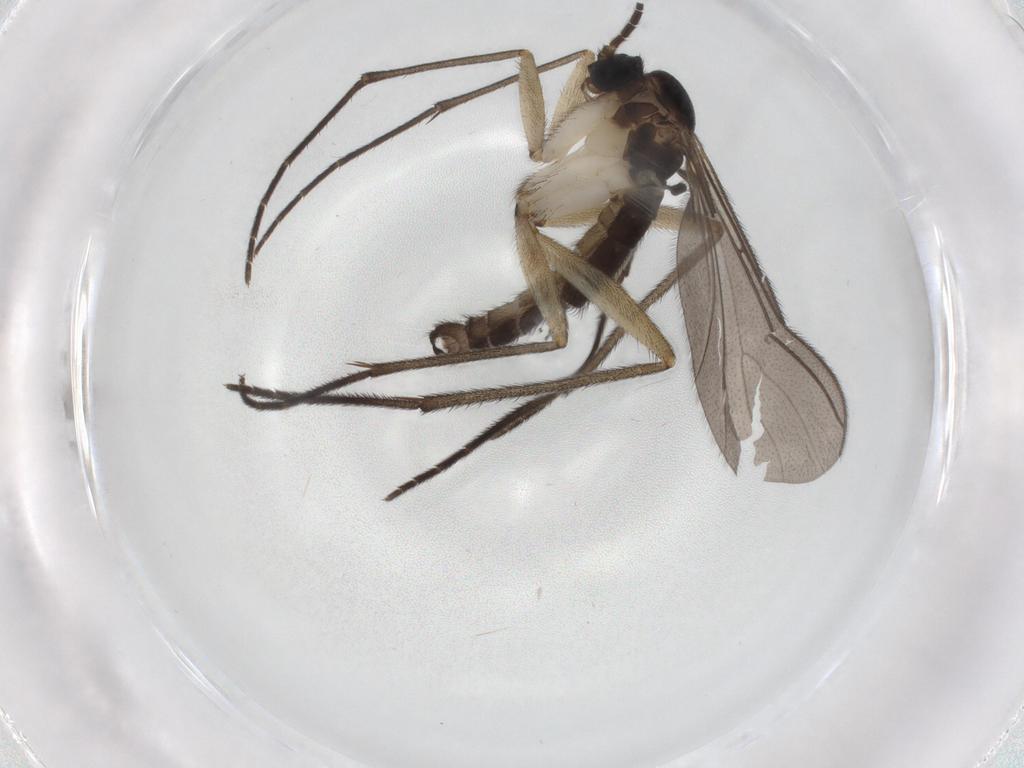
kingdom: Animalia
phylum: Arthropoda
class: Insecta
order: Diptera
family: Sciaridae
